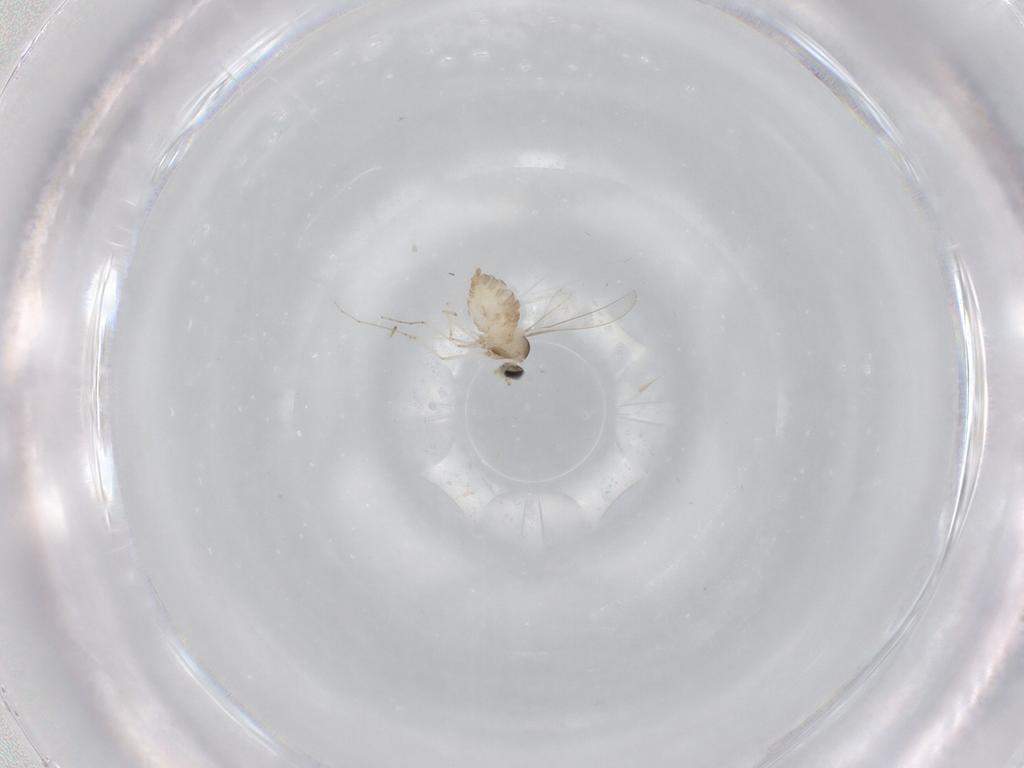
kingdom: Animalia
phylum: Arthropoda
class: Insecta
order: Diptera
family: Cecidomyiidae
